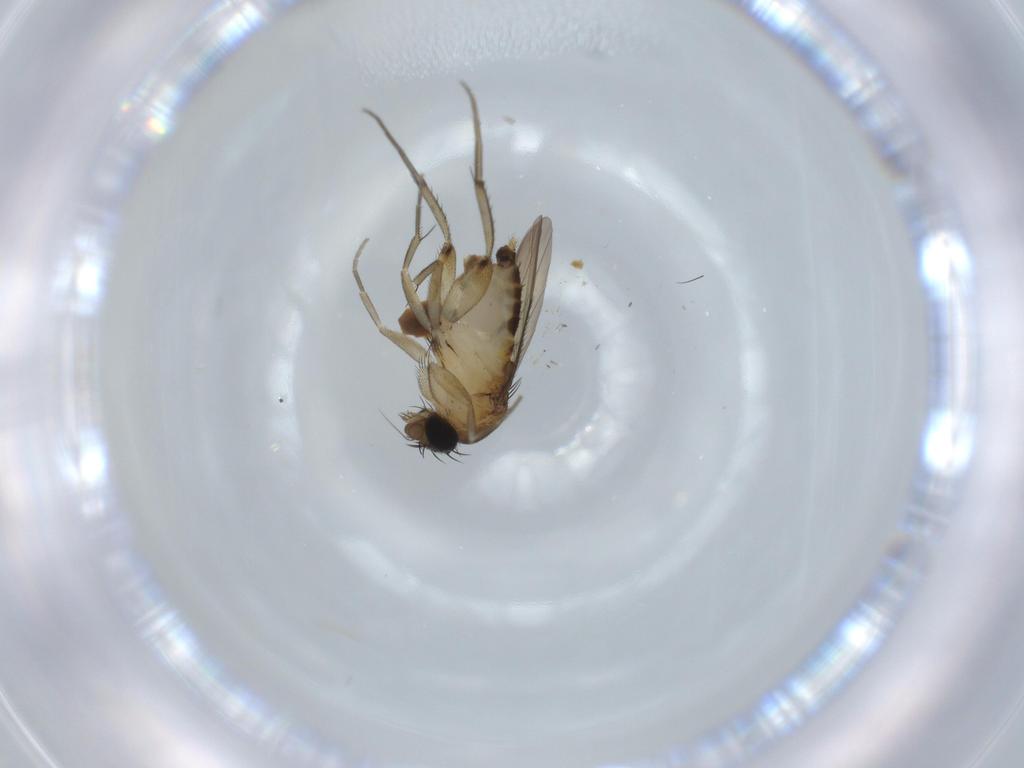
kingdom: Animalia
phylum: Arthropoda
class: Insecta
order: Diptera
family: Psychodidae
